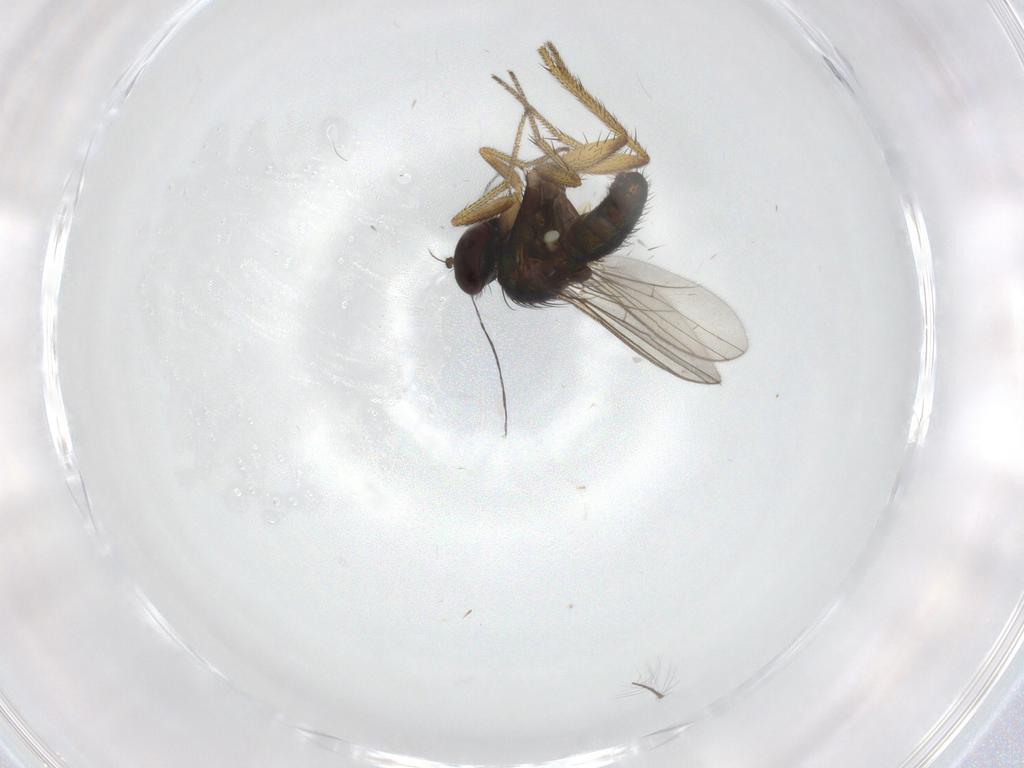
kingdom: Animalia
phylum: Arthropoda
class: Insecta
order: Diptera
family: Chironomidae
